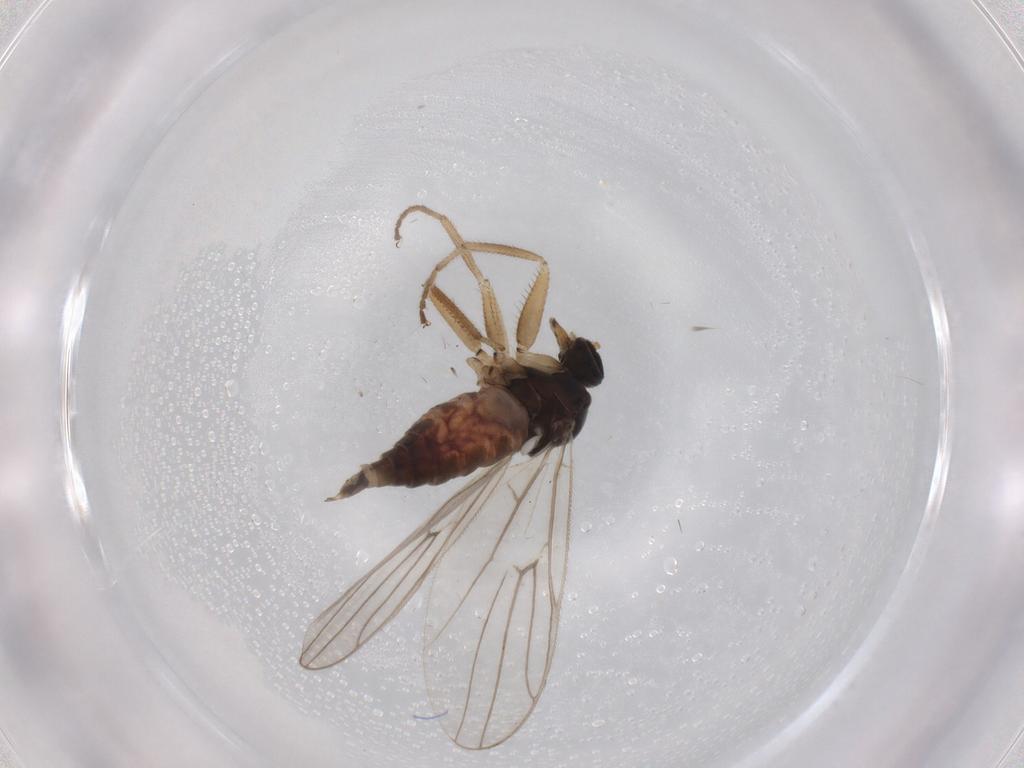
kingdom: Animalia
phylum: Arthropoda
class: Insecta
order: Diptera
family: Hybotidae
